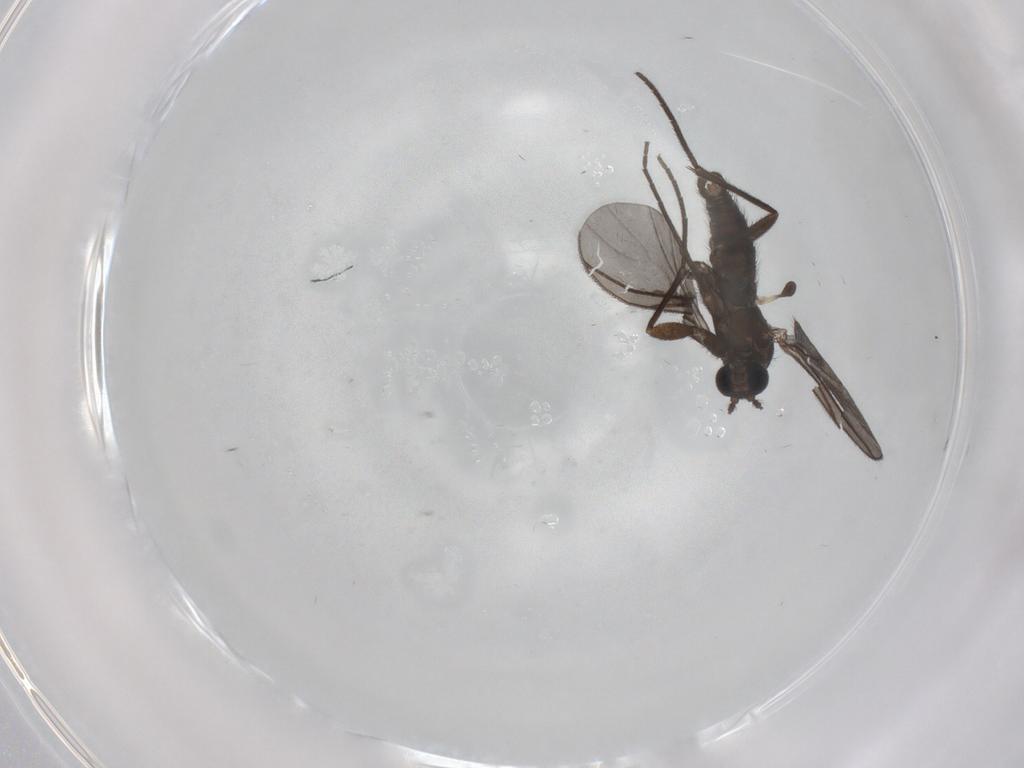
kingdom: Animalia
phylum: Arthropoda
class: Insecta
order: Diptera
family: Sciaridae
